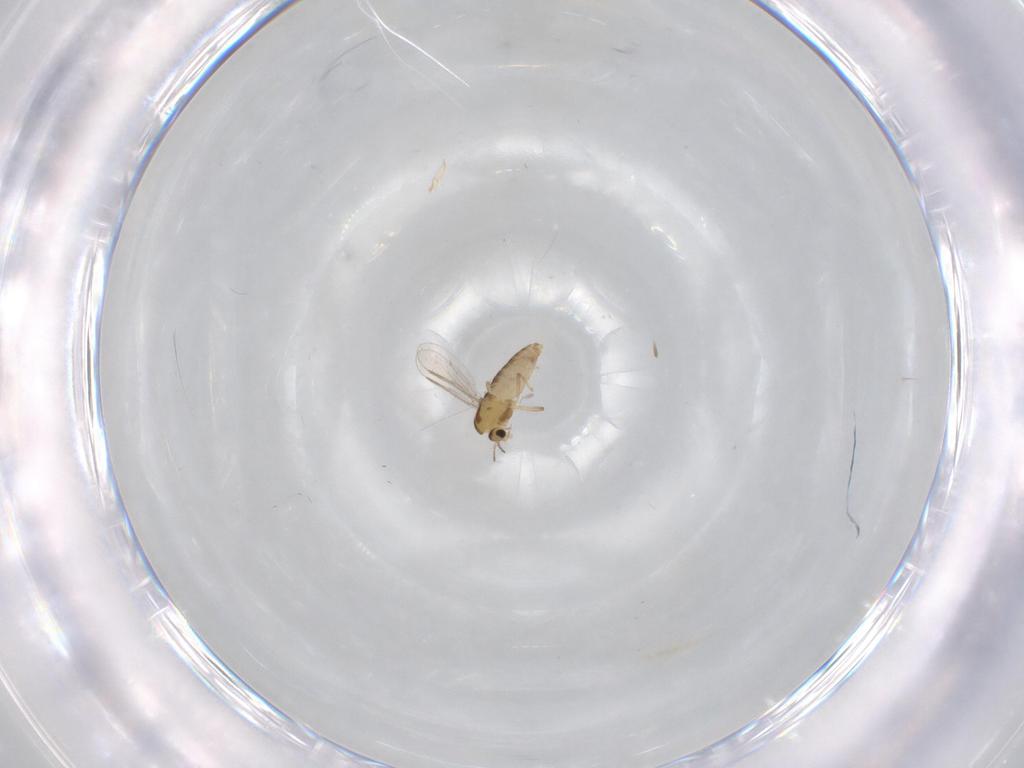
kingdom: Animalia
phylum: Arthropoda
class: Insecta
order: Diptera
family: Chironomidae
